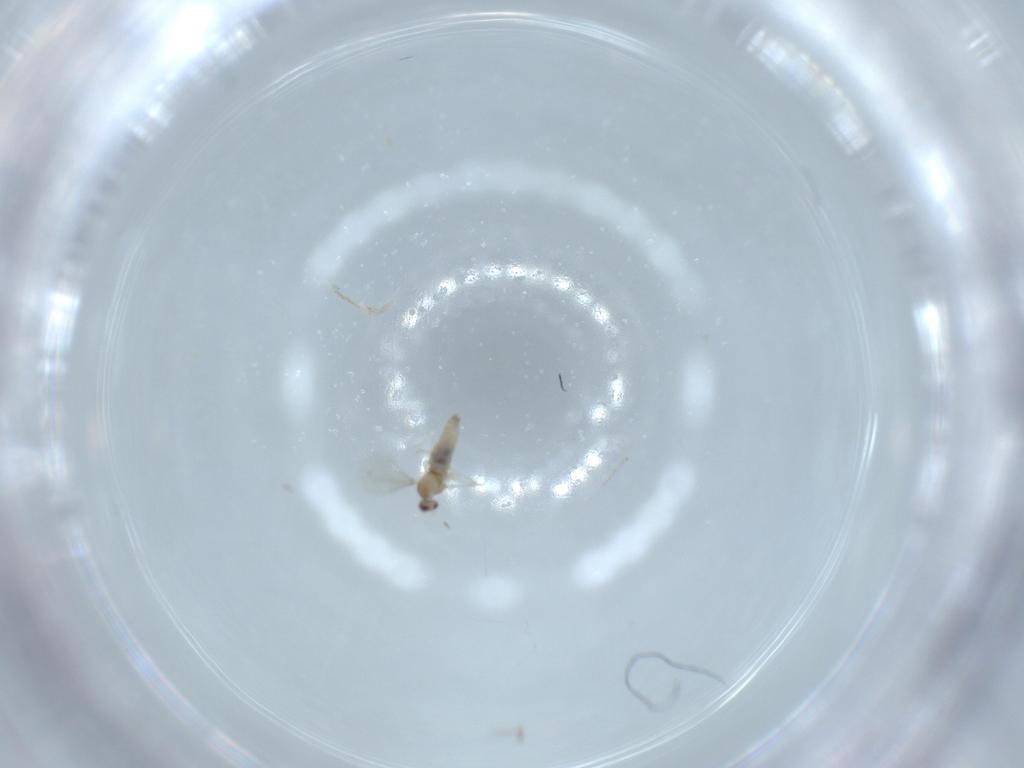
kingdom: Animalia
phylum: Arthropoda
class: Insecta
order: Diptera
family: Cecidomyiidae
